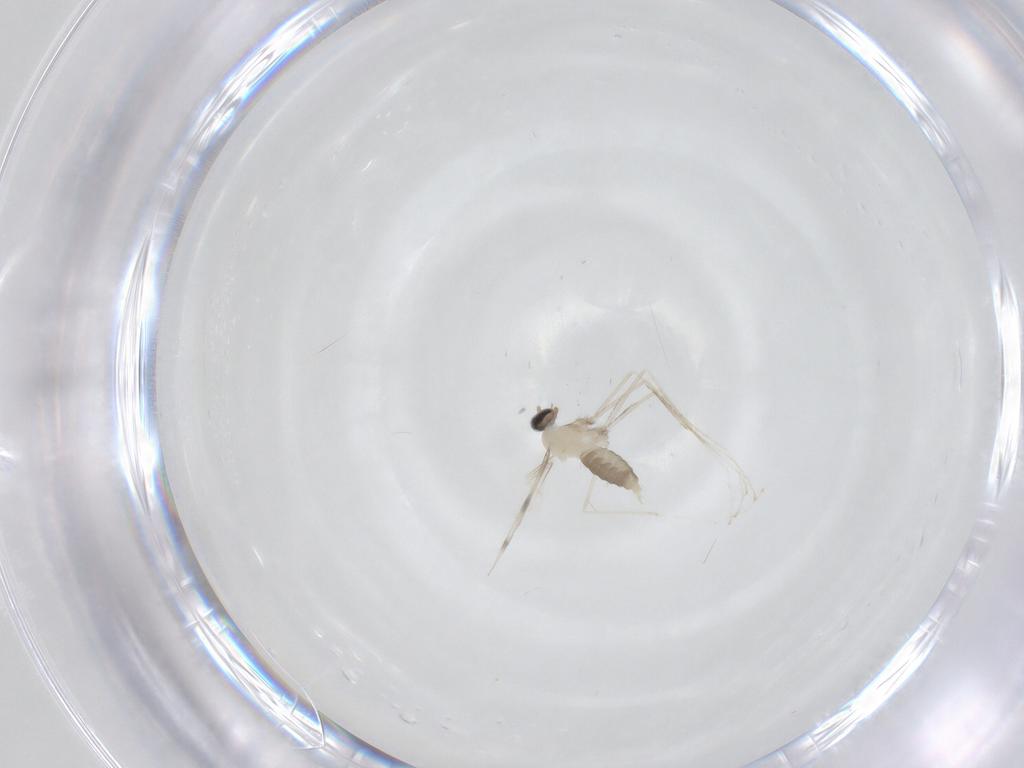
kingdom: Animalia
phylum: Arthropoda
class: Insecta
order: Diptera
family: Cecidomyiidae
